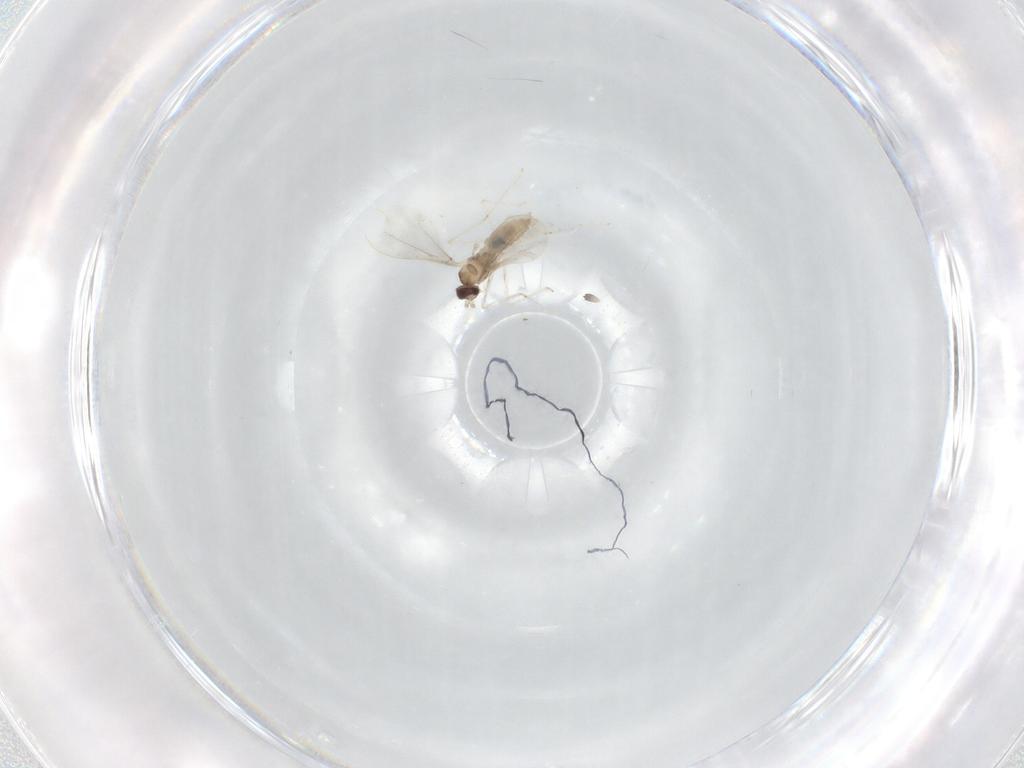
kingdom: Animalia
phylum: Arthropoda
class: Insecta
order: Diptera
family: Cecidomyiidae
